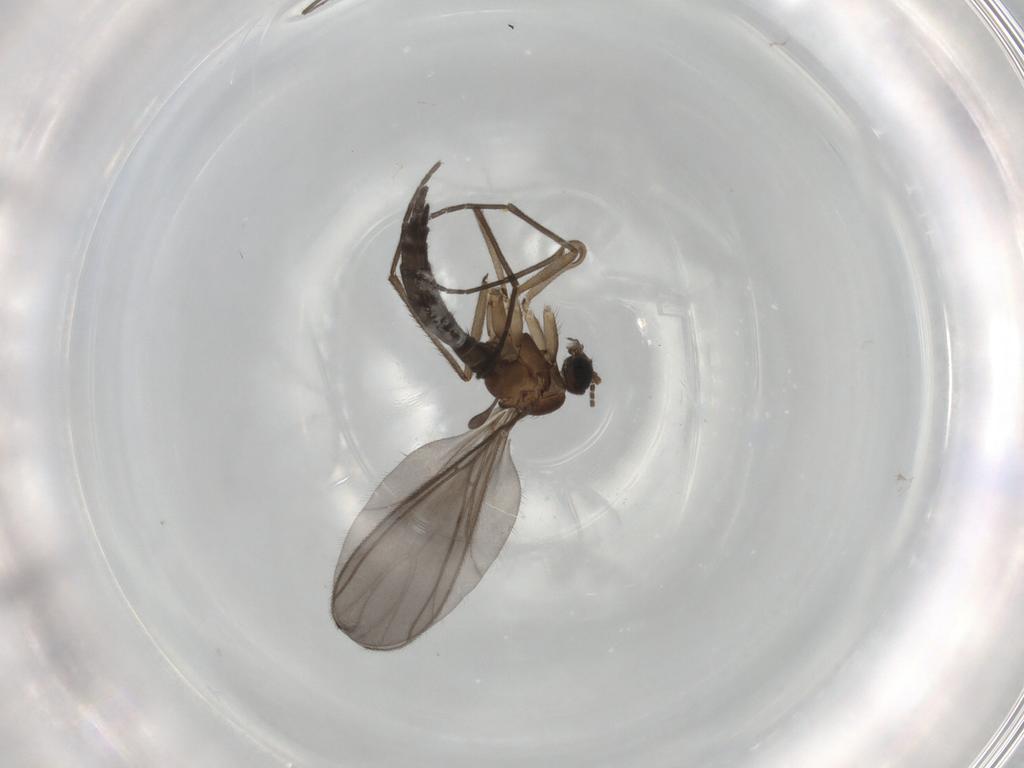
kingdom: Animalia
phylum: Arthropoda
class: Insecta
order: Diptera
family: Sciaridae
